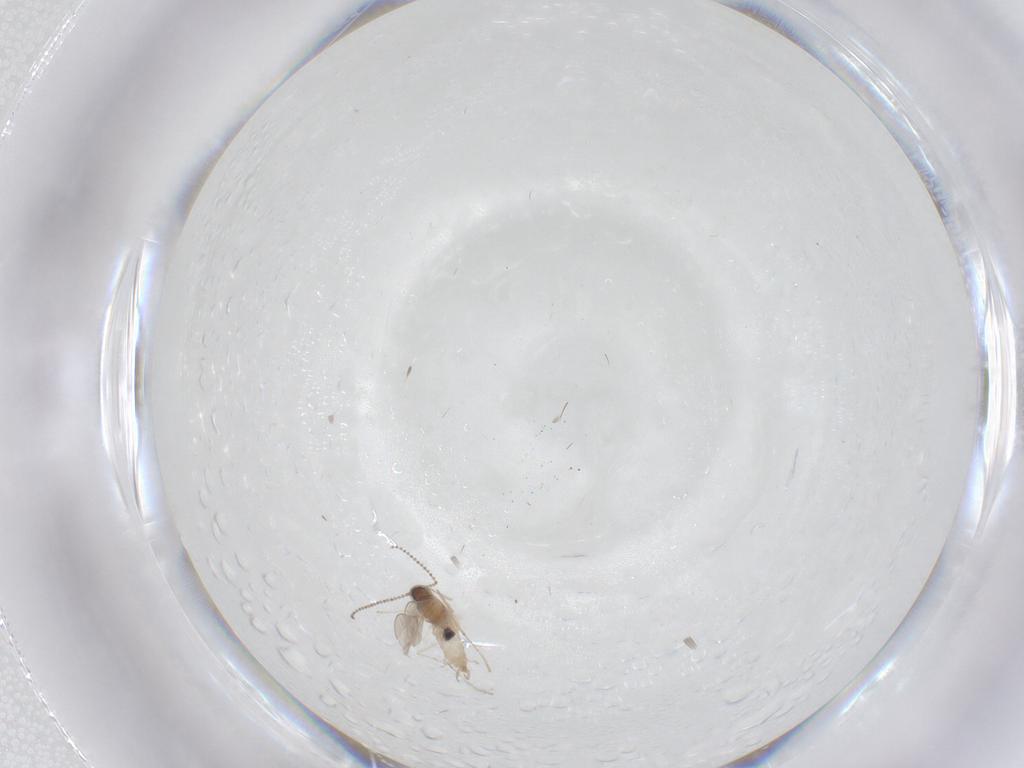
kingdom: Animalia
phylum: Arthropoda
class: Insecta
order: Diptera
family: Cecidomyiidae
